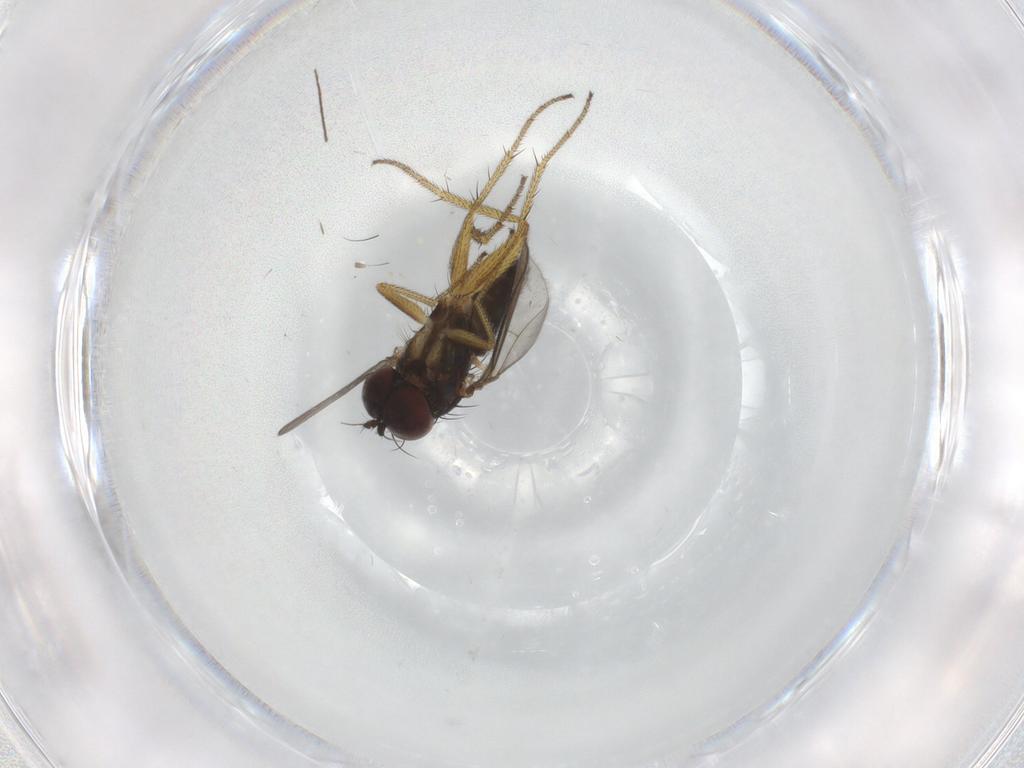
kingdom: Animalia
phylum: Arthropoda
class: Insecta
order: Diptera
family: Dolichopodidae
